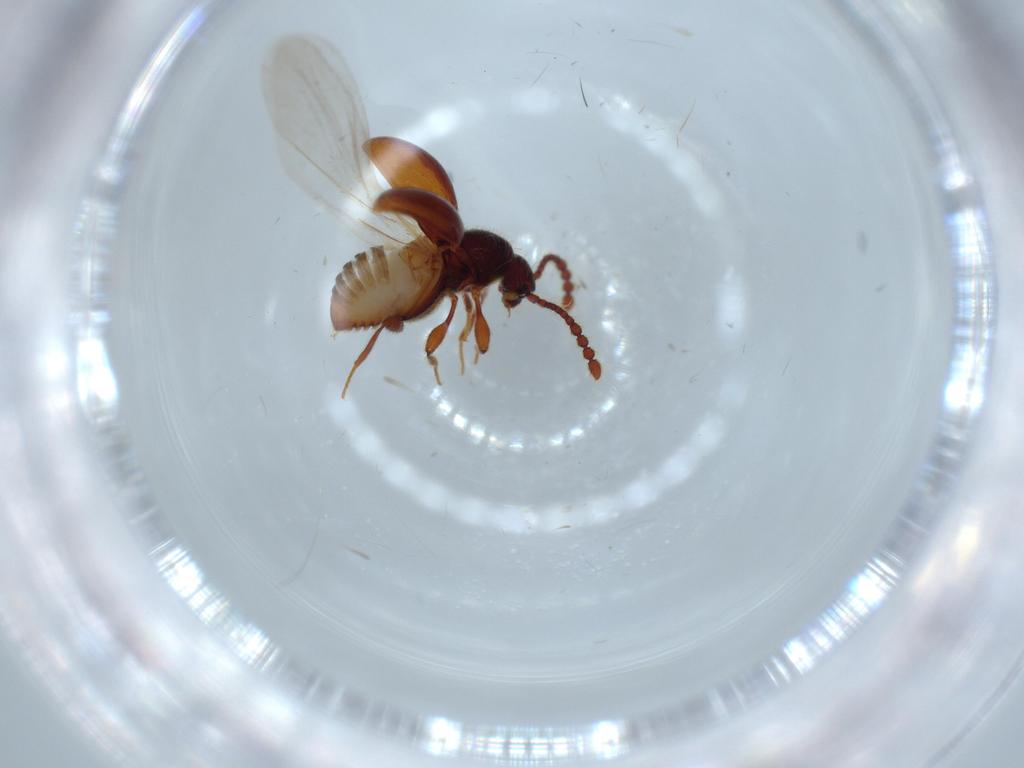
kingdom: Animalia
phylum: Arthropoda
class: Insecta
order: Coleoptera
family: Staphylinidae
